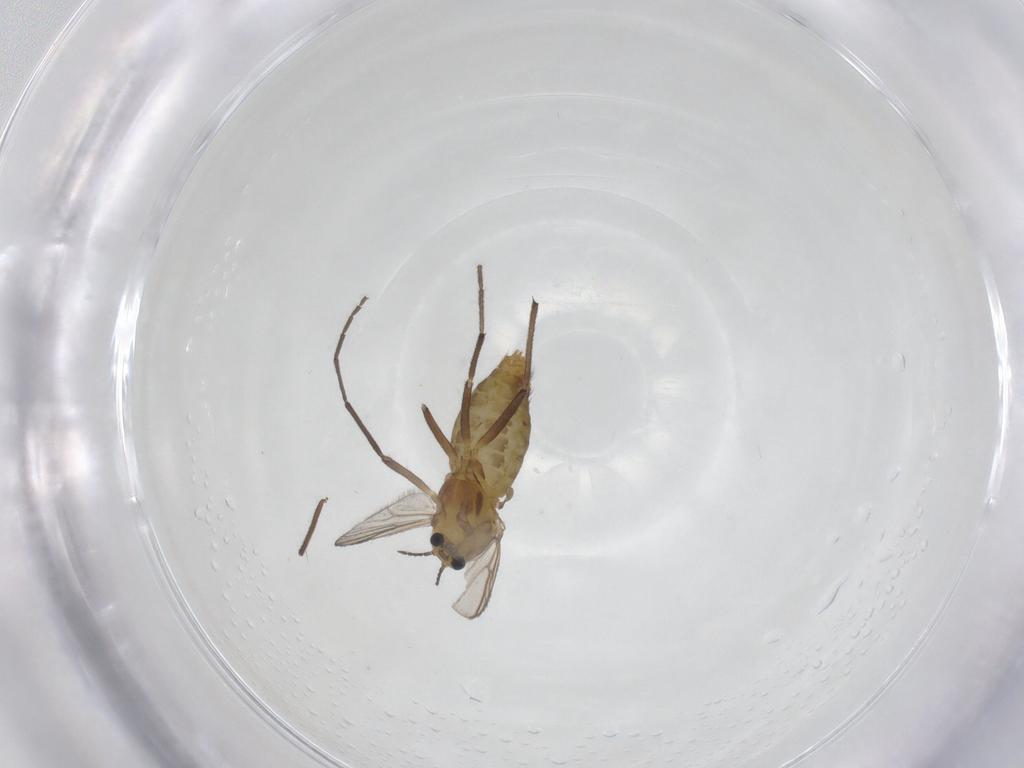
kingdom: Animalia
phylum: Arthropoda
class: Insecta
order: Diptera
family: Chironomidae
